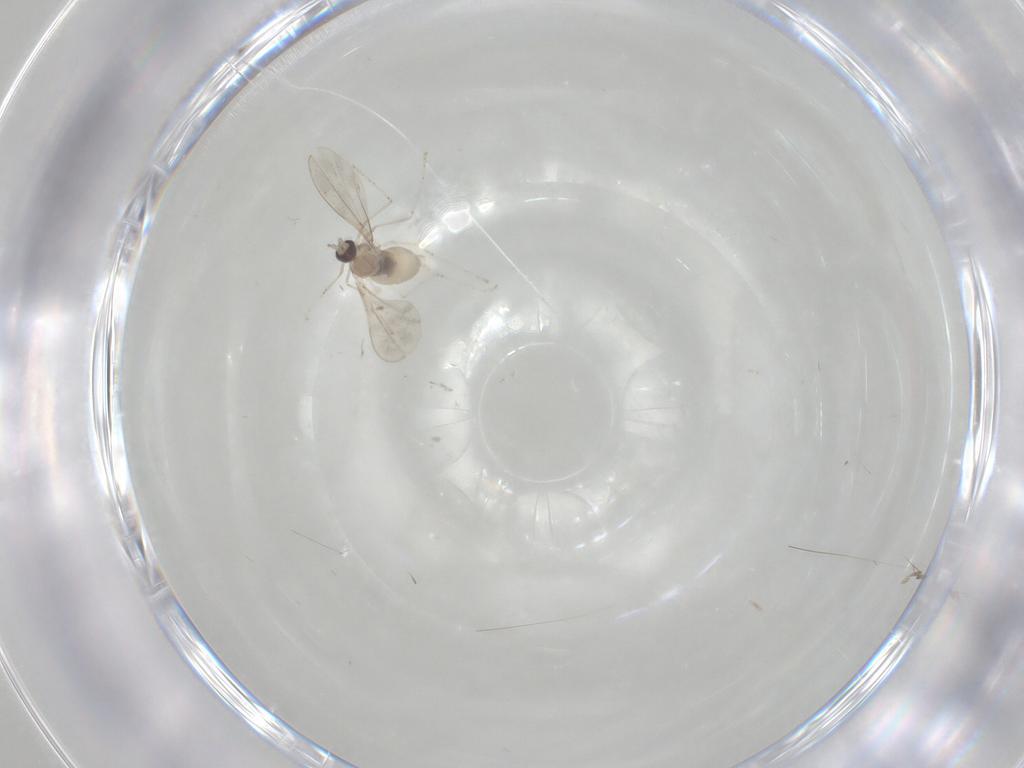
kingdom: Animalia
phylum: Arthropoda
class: Insecta
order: Diptera
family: Cecidomyiidae
